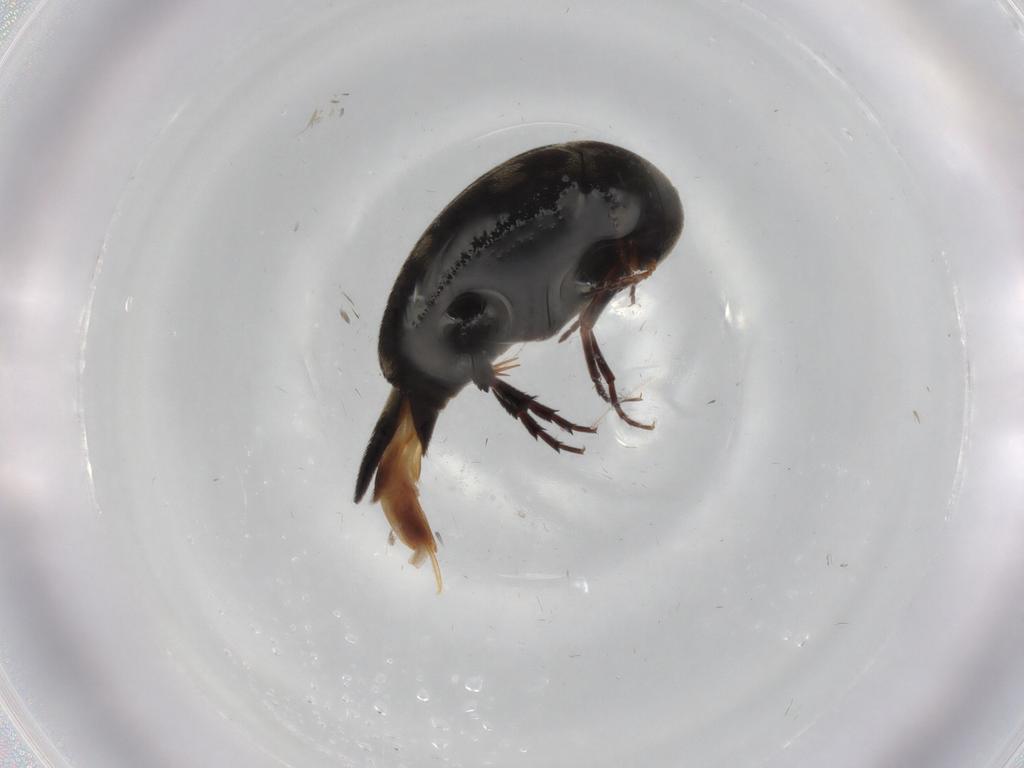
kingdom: Animalia
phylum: Arthropoda
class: Insecta
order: Coleoptera
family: Mordellidae
